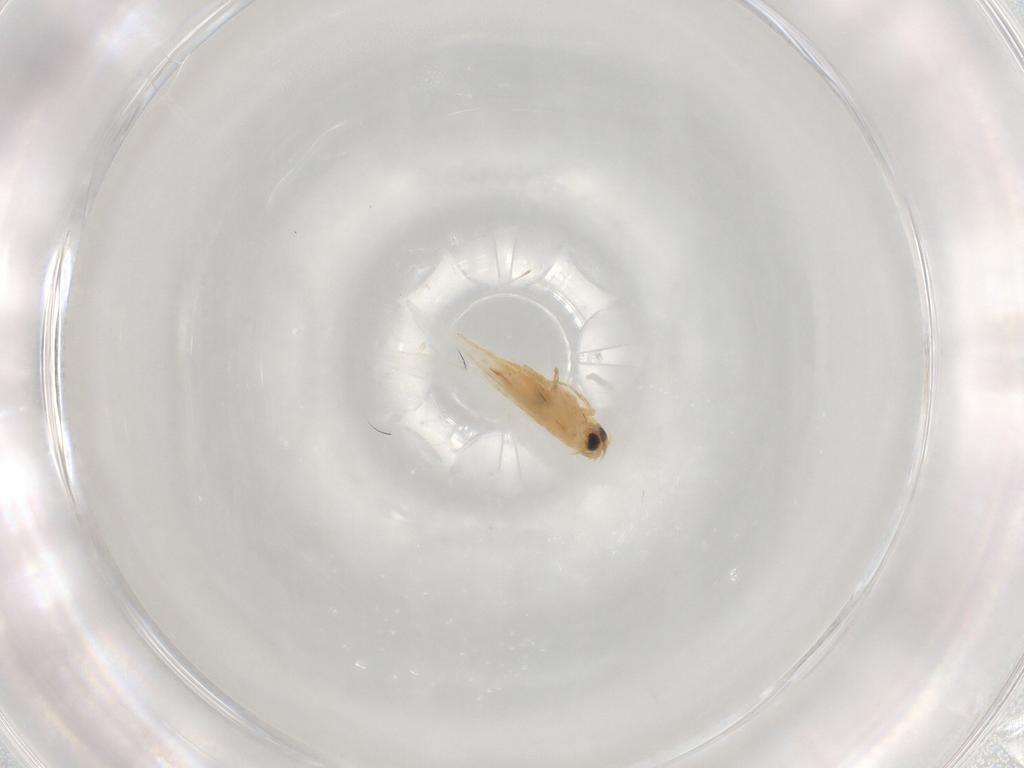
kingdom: Animalia
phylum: Arthropoda
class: Insecta
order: Lepidoptera
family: Nepticulidae
